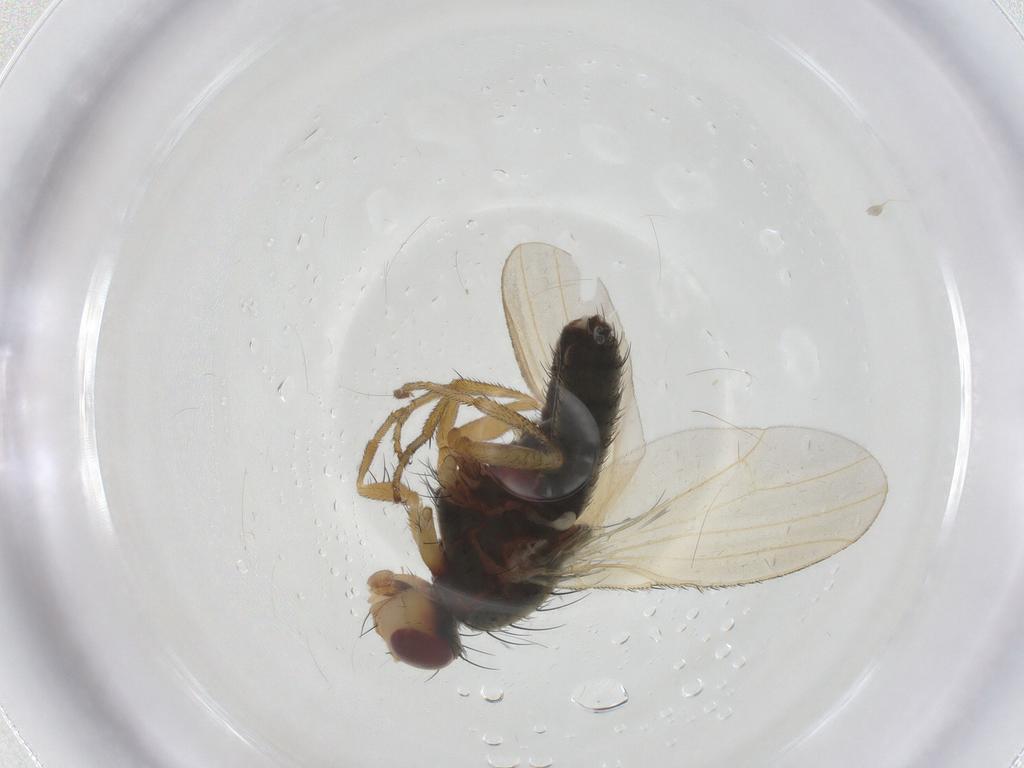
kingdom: Animalia
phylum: Arthropoda
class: Insecta
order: Diptera
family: Heleomyzidae
